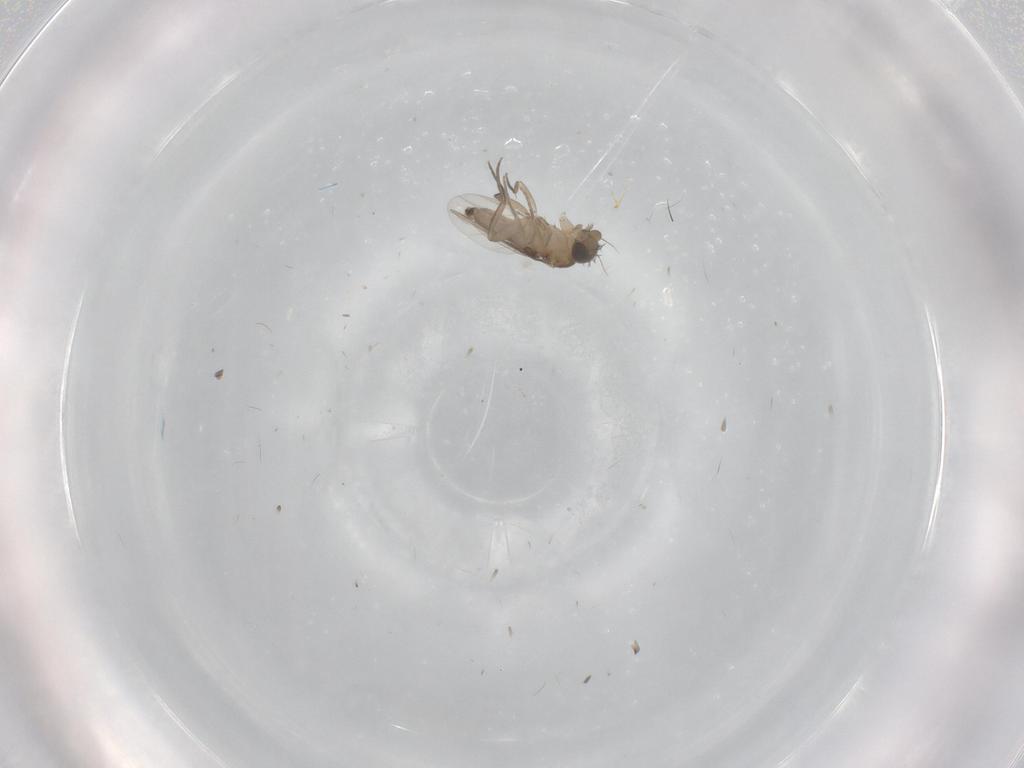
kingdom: Animalia
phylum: Arthropoda
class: Insecta
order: Diptera
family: Phoridae
